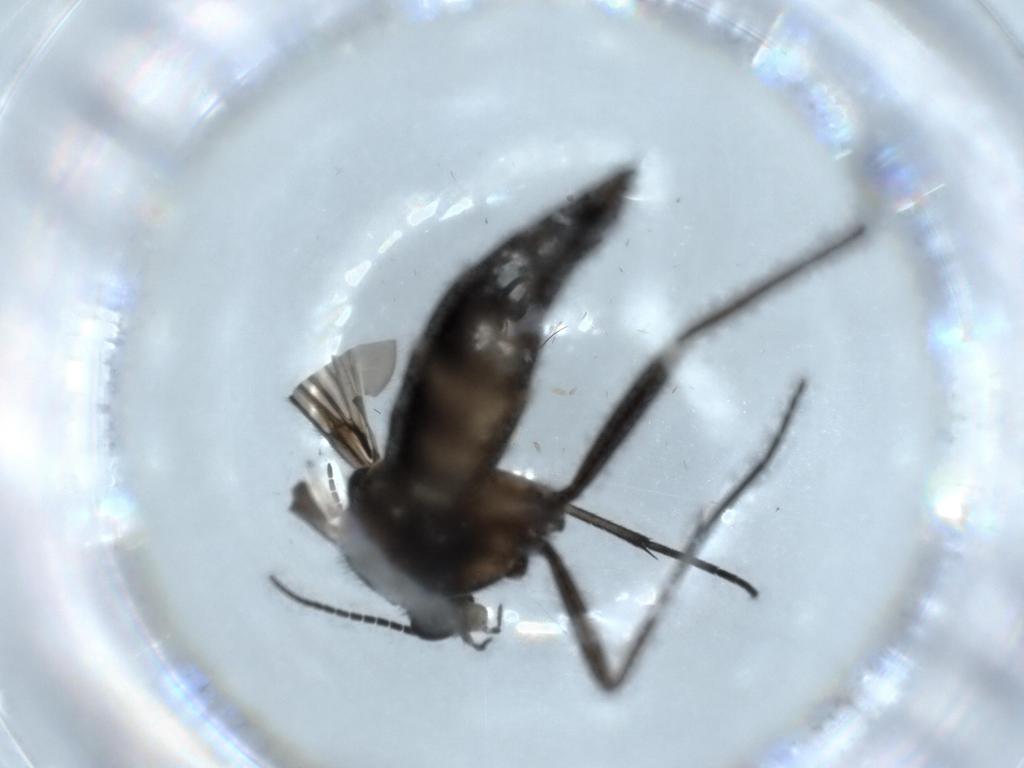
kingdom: Animalia
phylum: Arthropoda
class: Insecta
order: Diptera
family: Sciaridae
